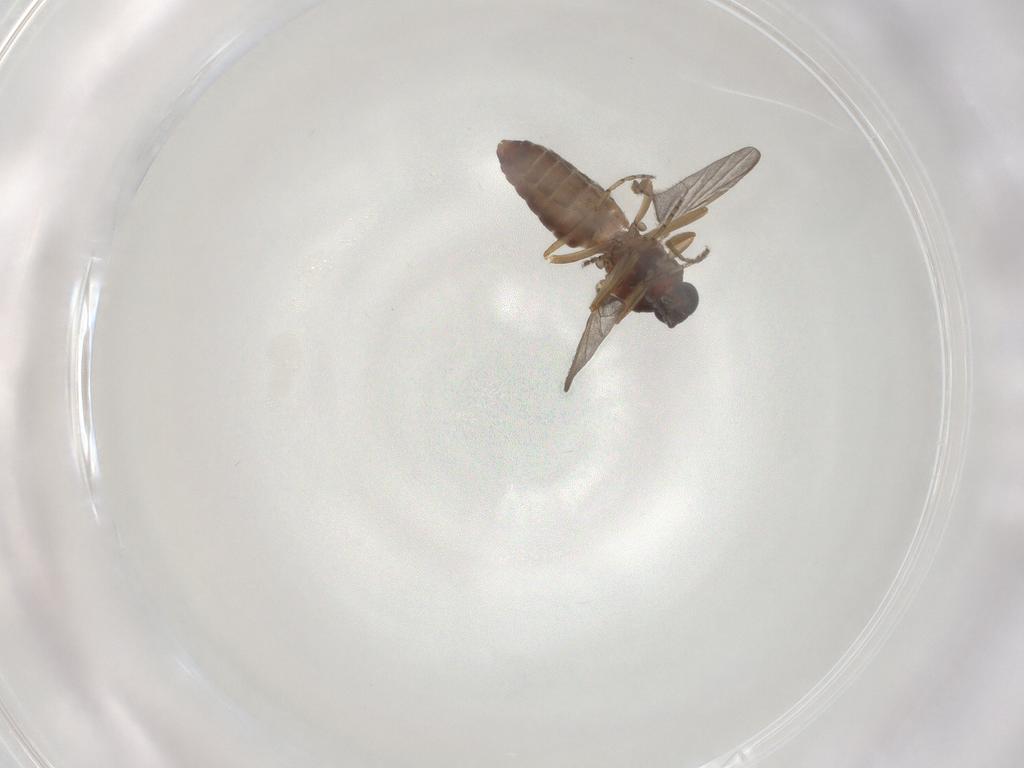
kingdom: Animalia
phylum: Arthropoda
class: Insecta
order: Diptera
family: Ceratopogonidae
